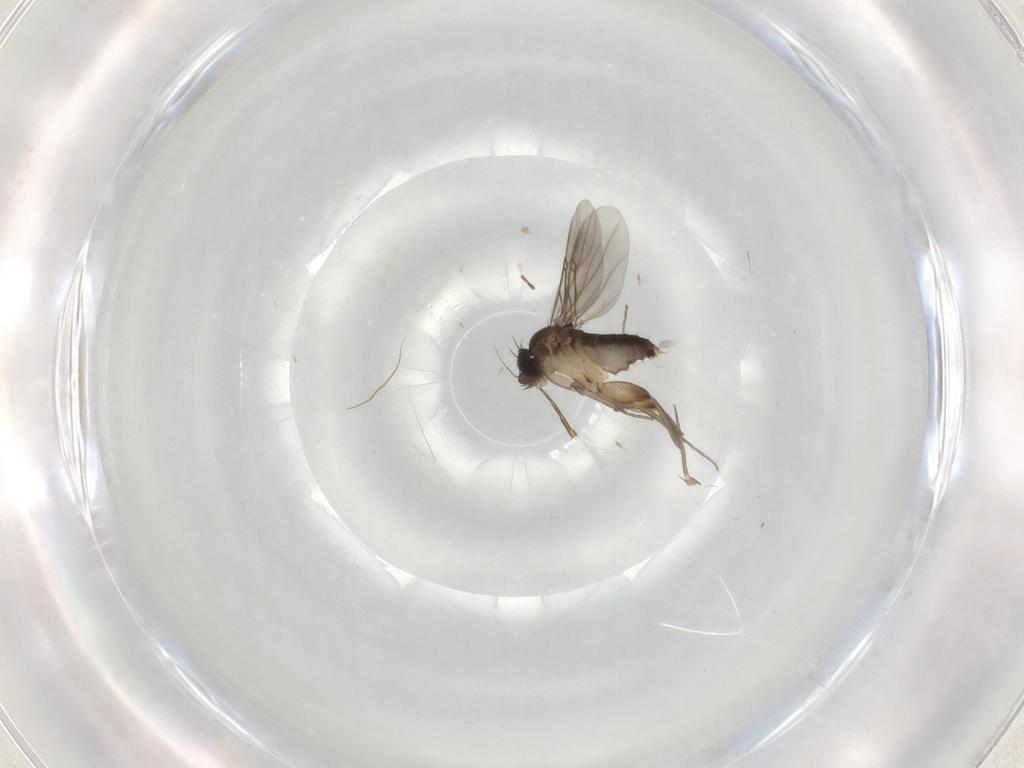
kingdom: Animalia
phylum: Arthropoda
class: Insecta
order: Diptera
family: Phoridae
